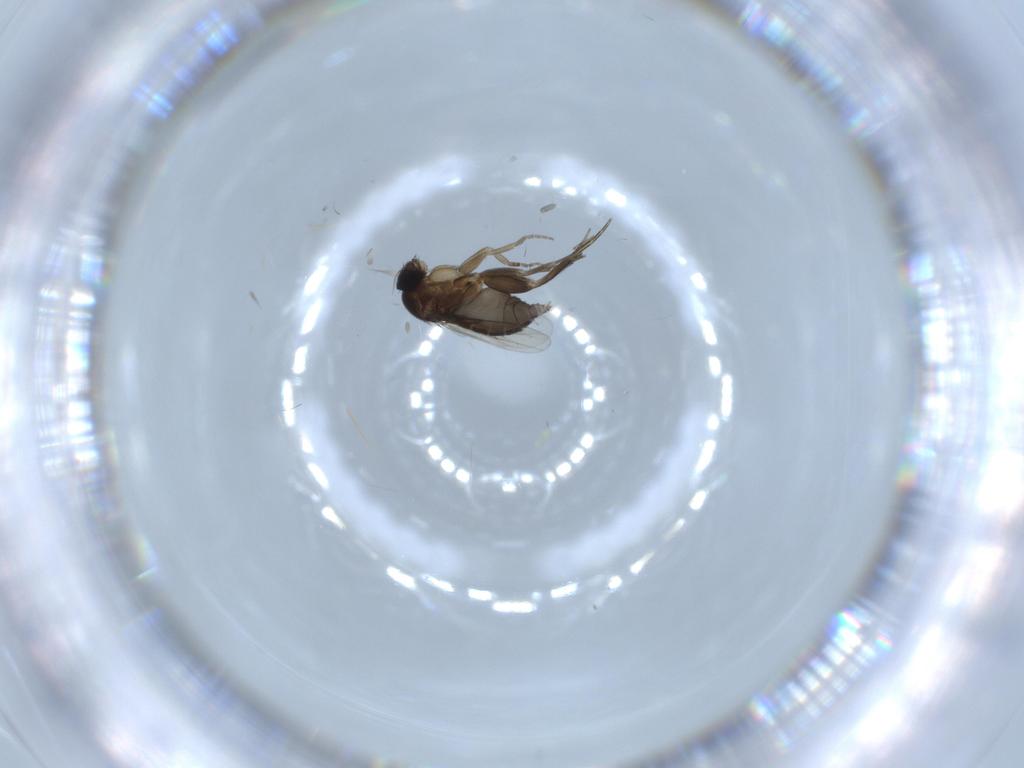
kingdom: Animalia
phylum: Arthropoda
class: Insecta
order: Diptera
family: Phoridae
